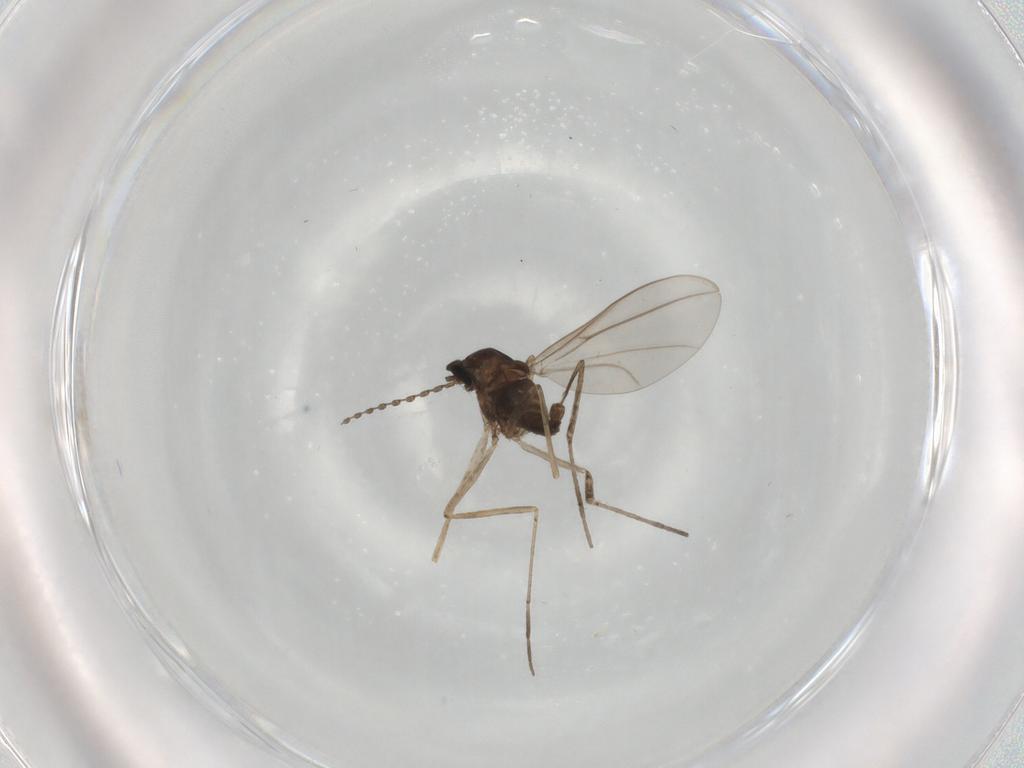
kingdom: Animalia
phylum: Arthropoda
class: Insecta
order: Diptera
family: Cecidomyiidae
